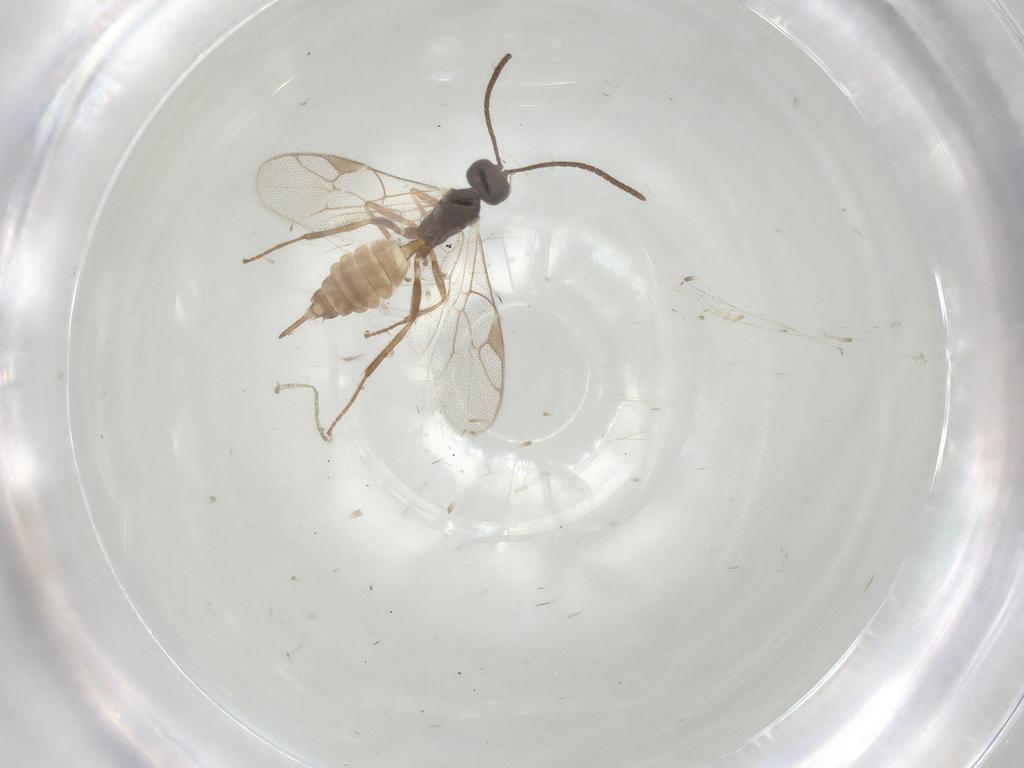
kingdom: Animalia
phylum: Arthropoda
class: Insecta
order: Hymenoptera
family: Ichneumonidae
